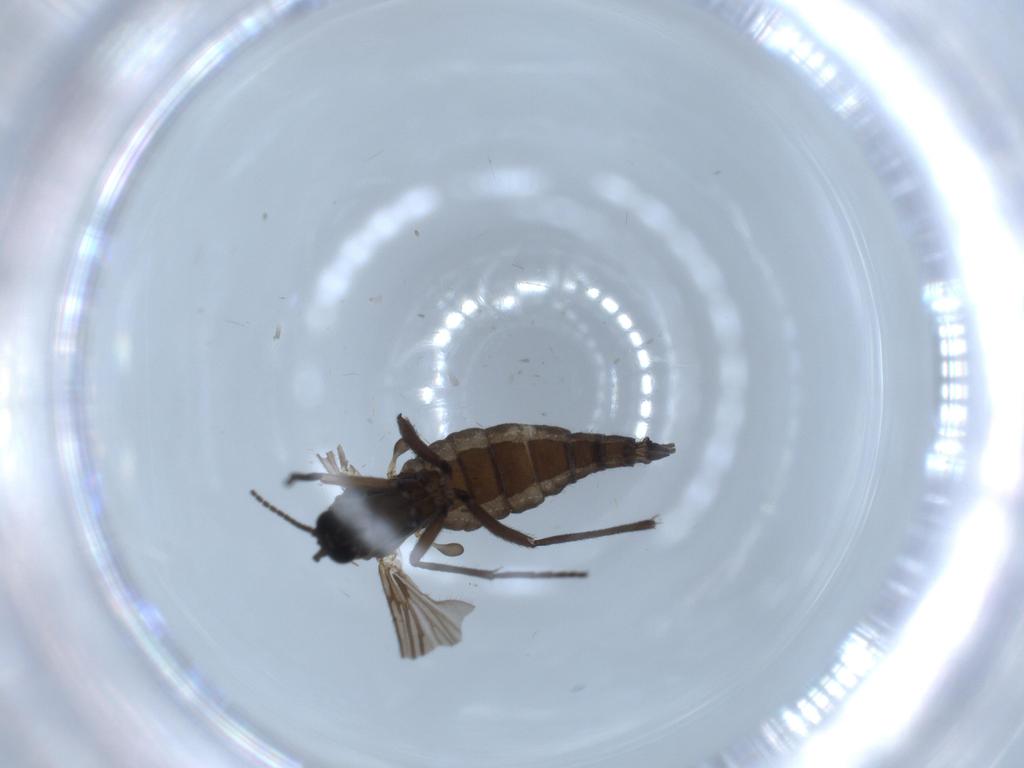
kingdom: Animalia
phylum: Arthropoda
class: Insecta
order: Diptera
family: Sciaridae
